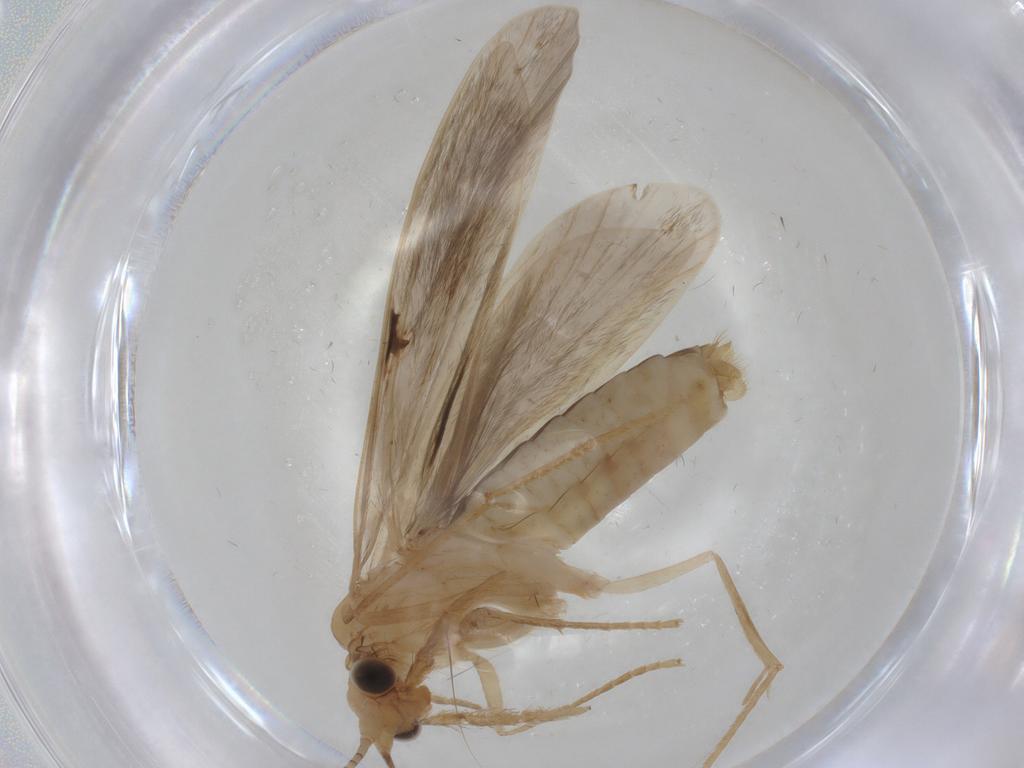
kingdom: Animalia
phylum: Arthropoda
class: Insecta
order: Trichoptera
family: Leptoceridae
